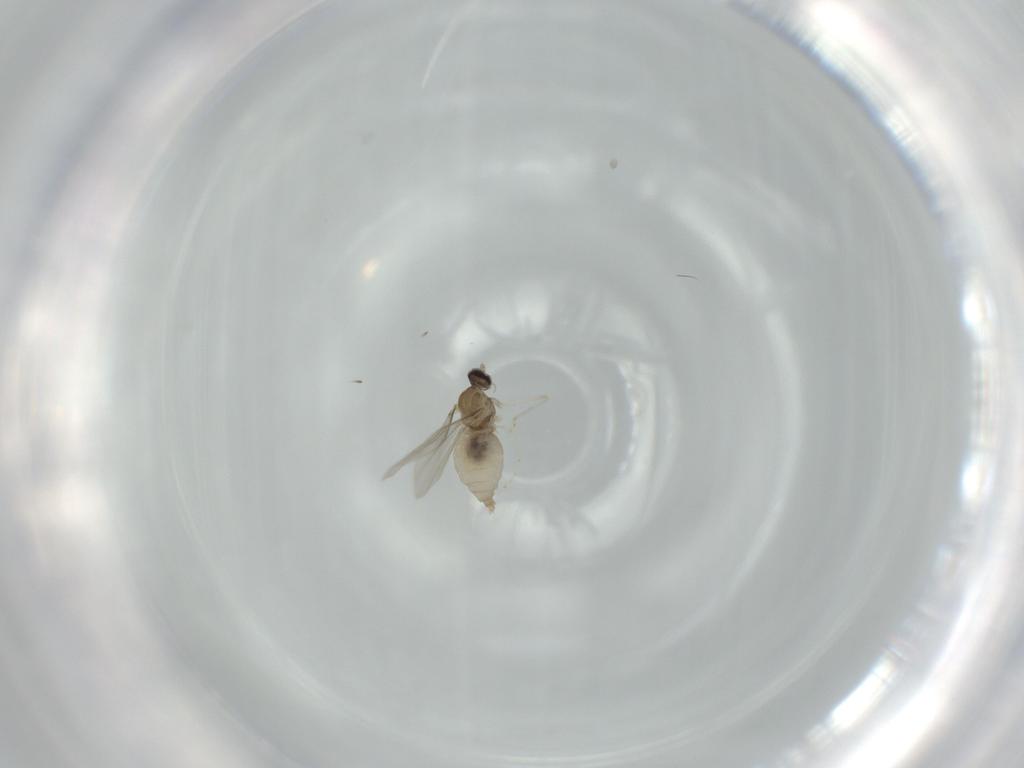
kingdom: Animalia
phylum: Arthropoda
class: Insecta
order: Diptera
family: Cecidomyiidae
